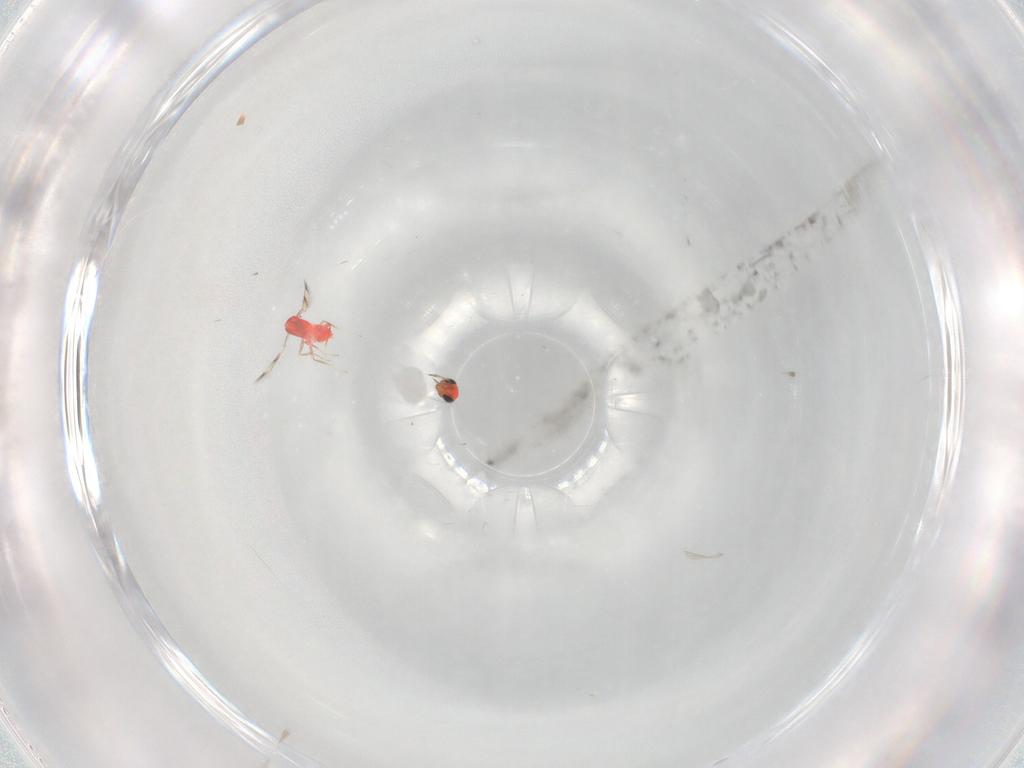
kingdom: Animalia
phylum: Arthropoda
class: Insecta
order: Hymenoptera
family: Trichogrammatidae
